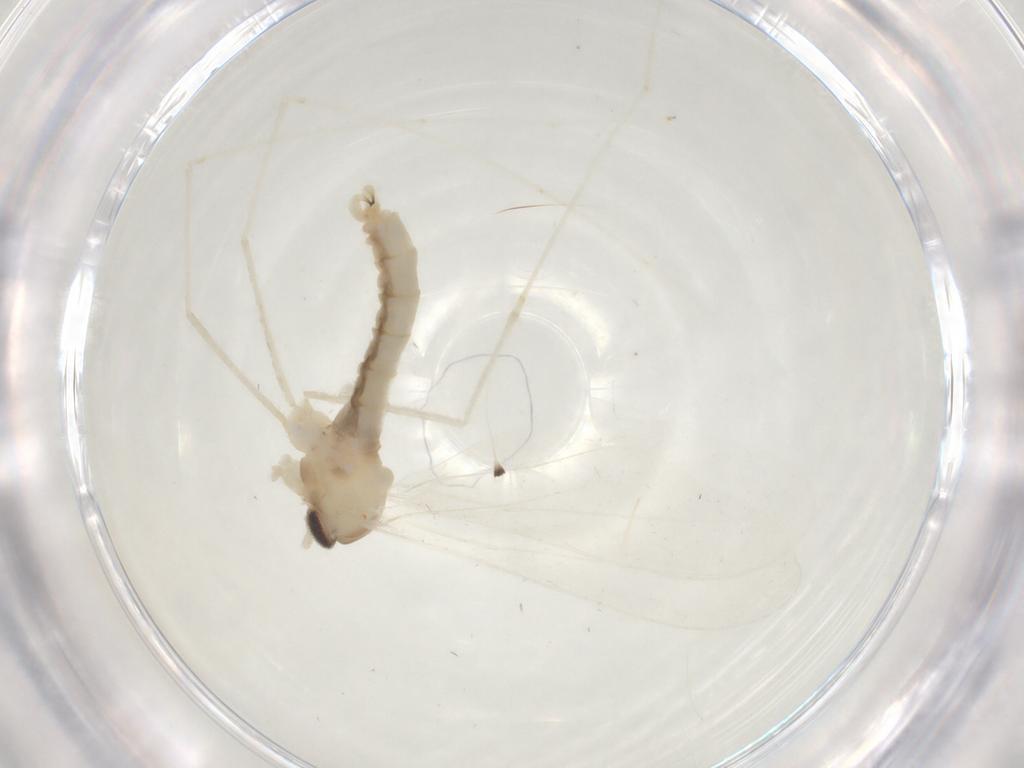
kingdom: Animalia
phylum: Arthropoda
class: Insecta
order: Diptera
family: Cecidomyiidae
